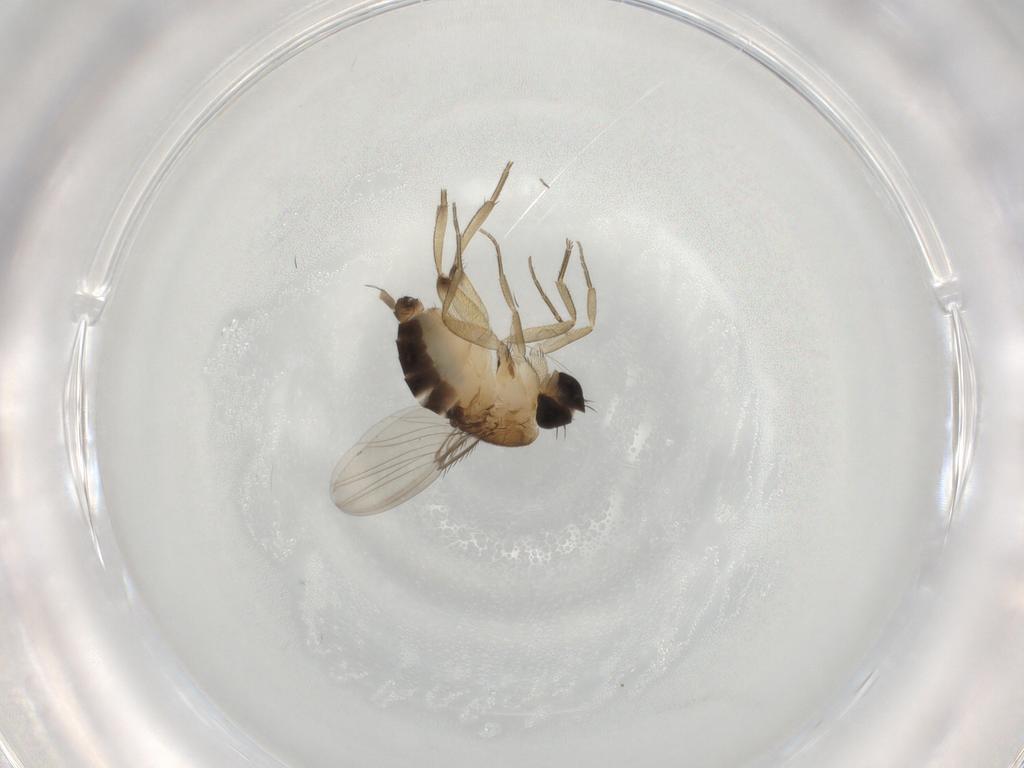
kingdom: Animalia
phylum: Arthropoda
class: Insecta
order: Diptera
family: Phoridae
